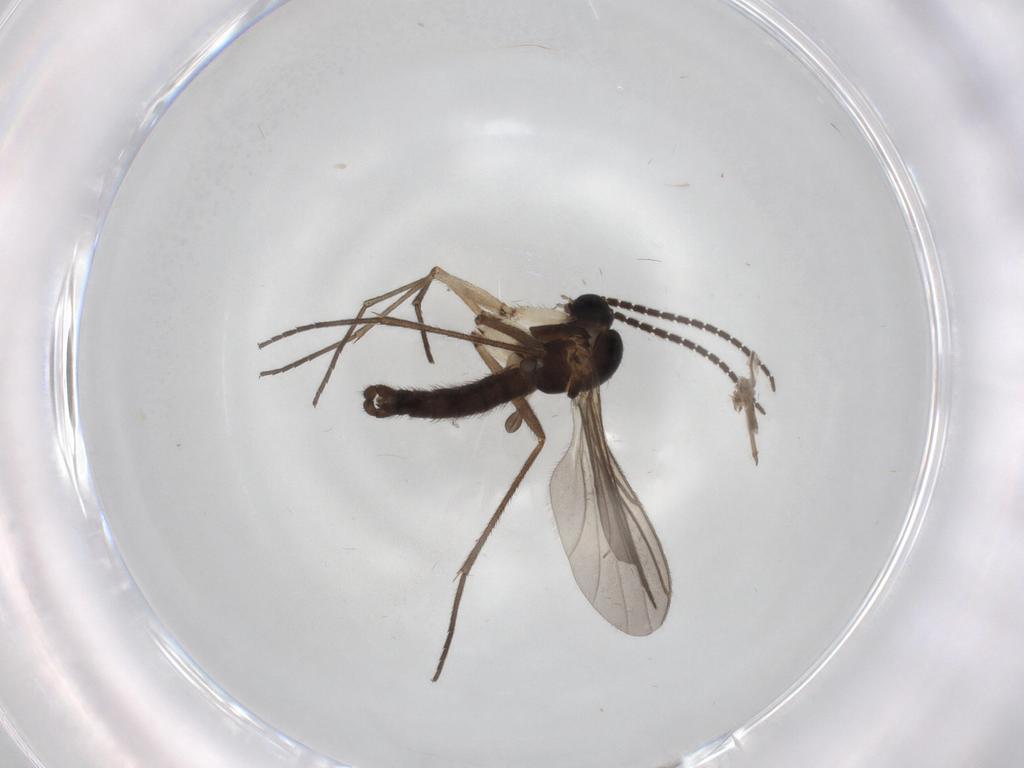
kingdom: Animalia
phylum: Arthropoda
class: Insecta
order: Diptera
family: Sciaridae
